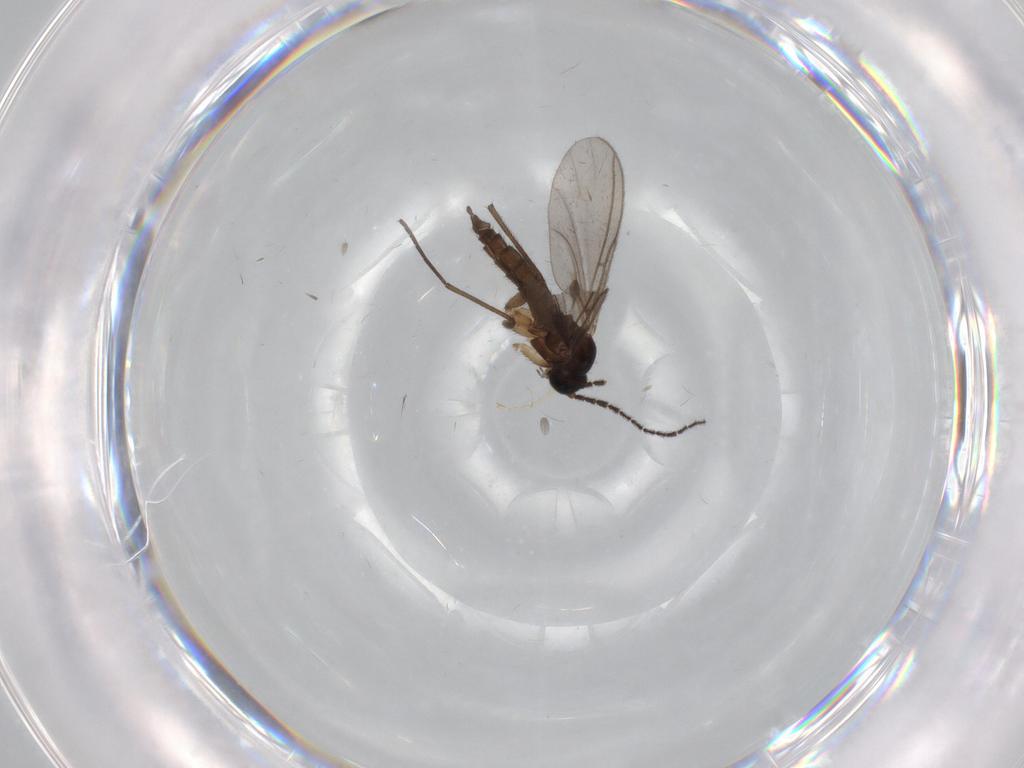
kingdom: Animalia
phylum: Arthropoda
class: Insecta
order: Diptera
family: Sciaridae
